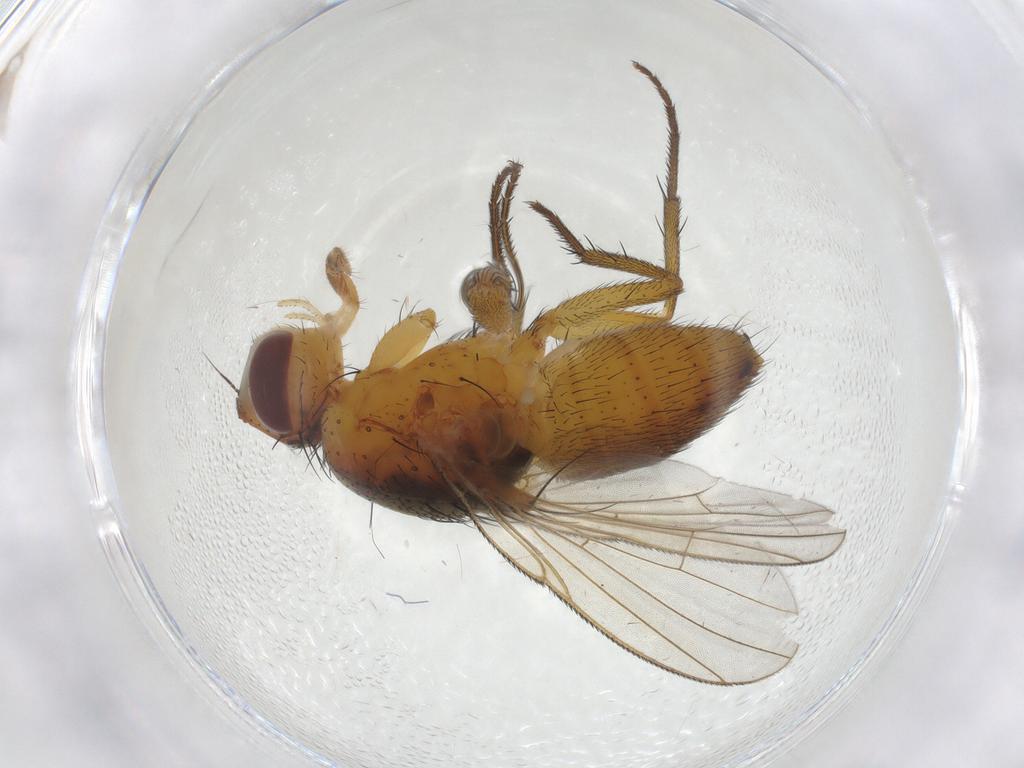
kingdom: Animalia
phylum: Arthropoda
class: Insecta
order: Diptera
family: Muscidae
